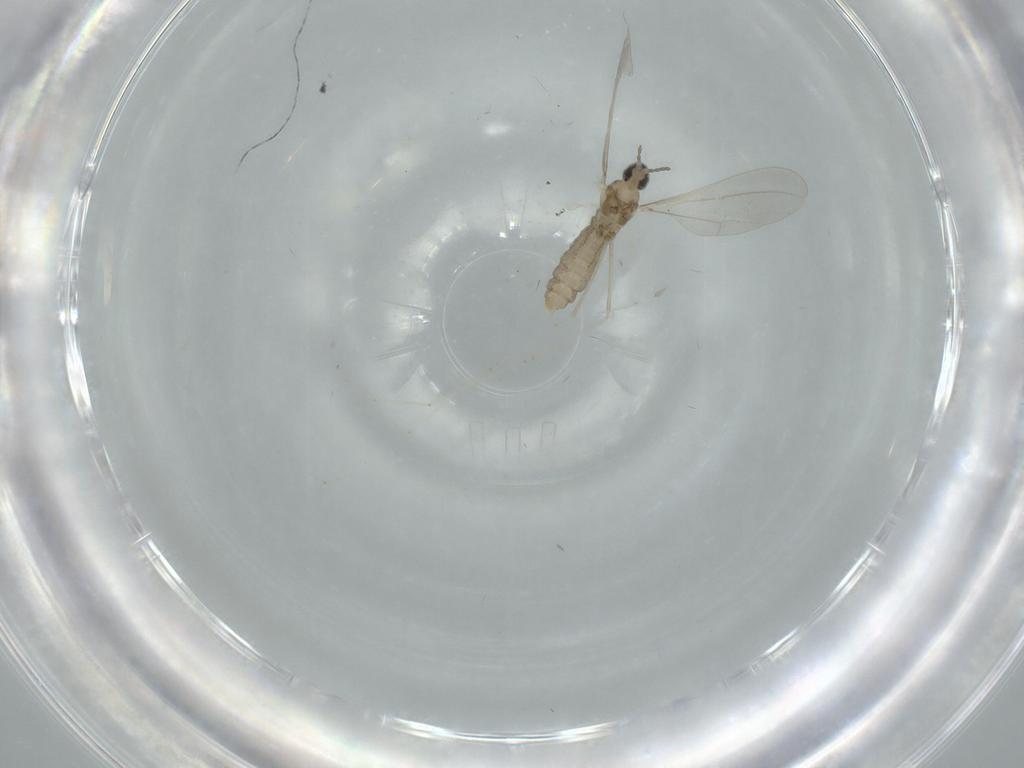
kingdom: Animalia
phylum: Arthropoda
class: Insecta
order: Diptera
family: Cecidomyiidae
